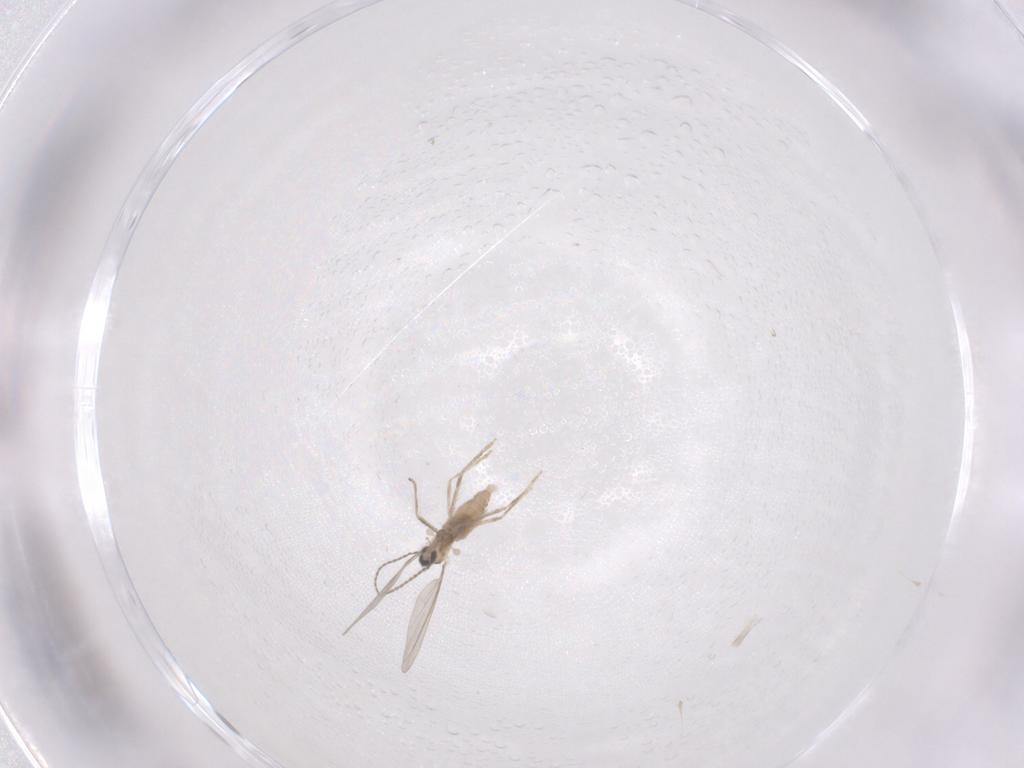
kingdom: Animalia
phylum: Arthropoda
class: Insecta
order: Diptera
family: Cecidomyiidae
